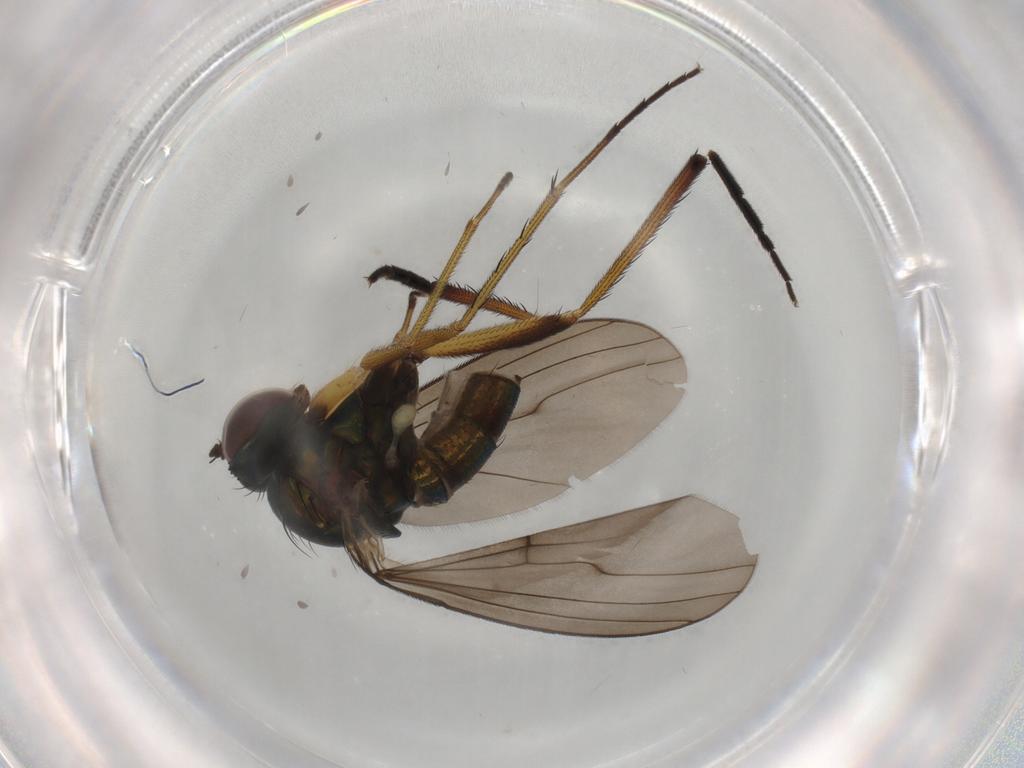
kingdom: Animalia
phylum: Arthropoda
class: Insecta
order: Diptera
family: Dolichopodidae
